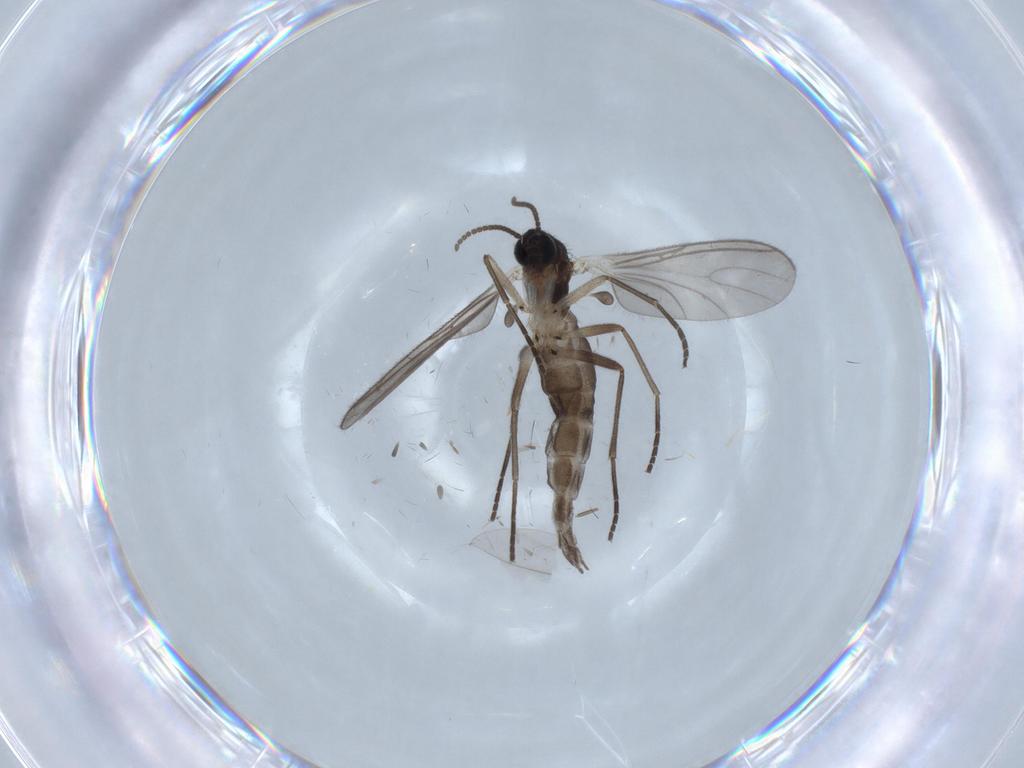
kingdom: Animalia
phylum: Arthropoda
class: Insecta
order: Diptera
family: Sciaridae
